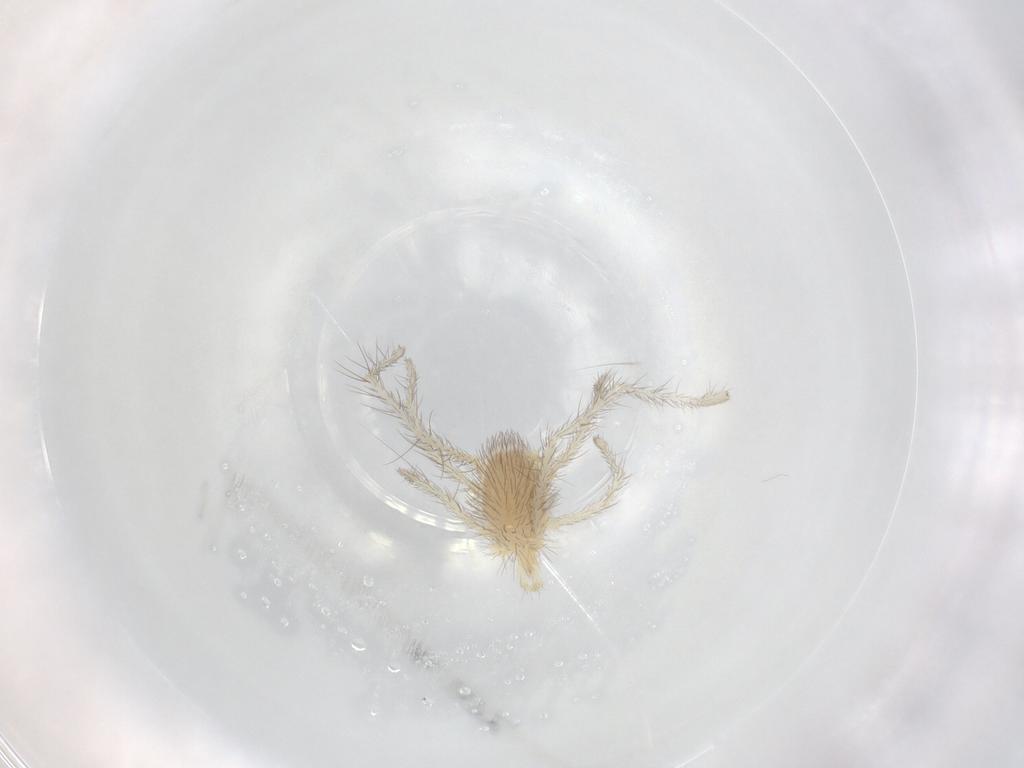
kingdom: Animalia
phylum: Arthropoda
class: Arachnida
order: Trombidiformes
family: Erythraeidae
